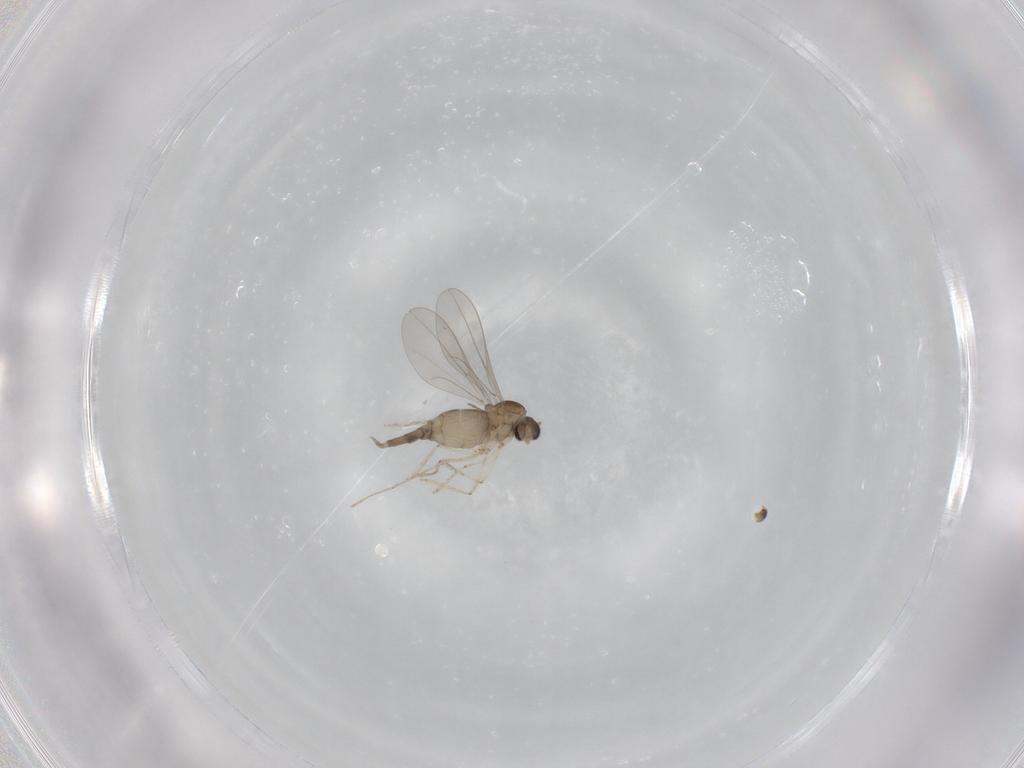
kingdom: Animalia
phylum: Arthropoda
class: Insecta
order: Diptera
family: Cecidomyiidae
